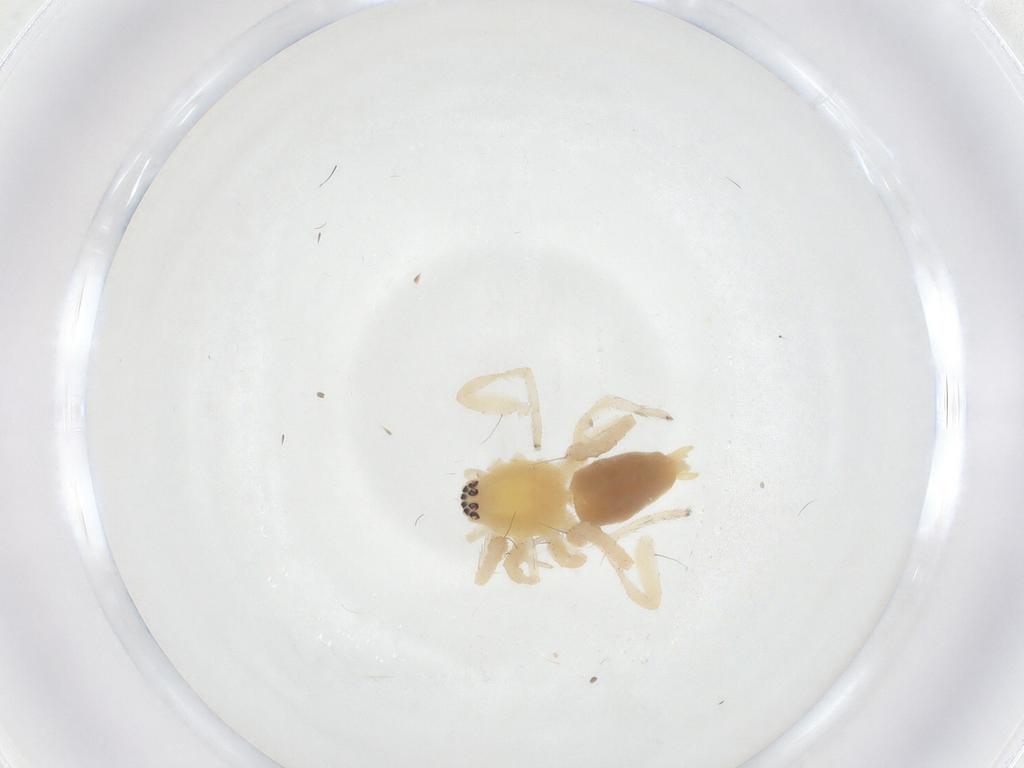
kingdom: Animalia
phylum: Arthropoda
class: Arachnida
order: Araneae
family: Anyphaenidae
